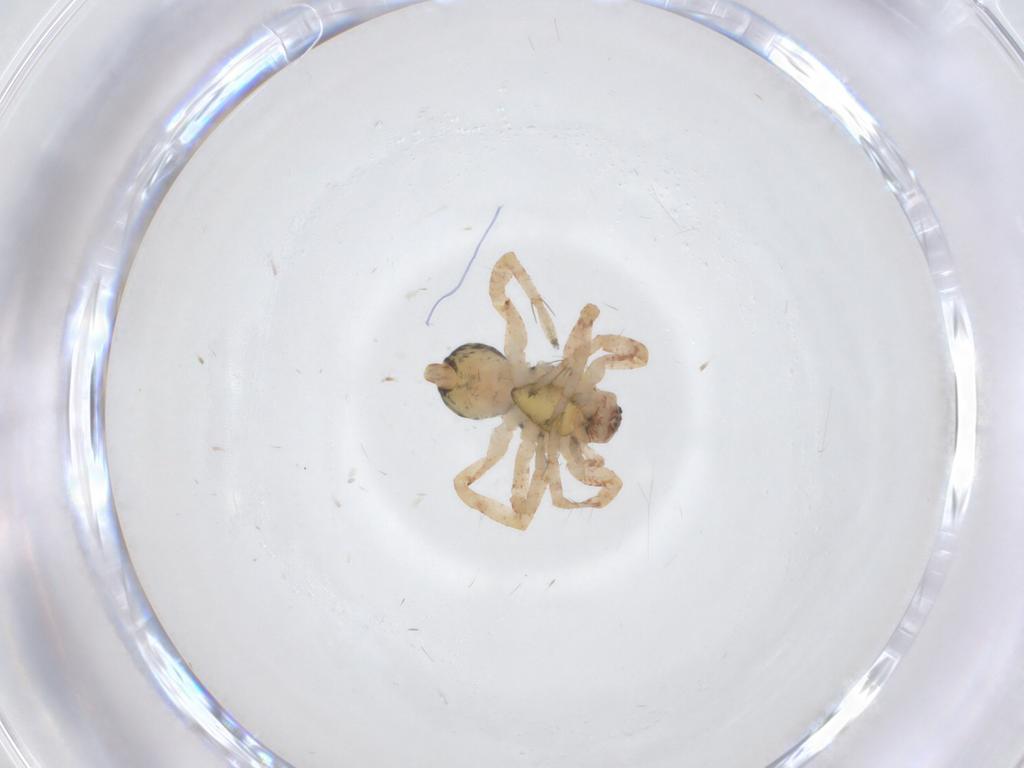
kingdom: Animalia
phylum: Arthropoda
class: Arachnida
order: Araneae
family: Anyphaenidae
